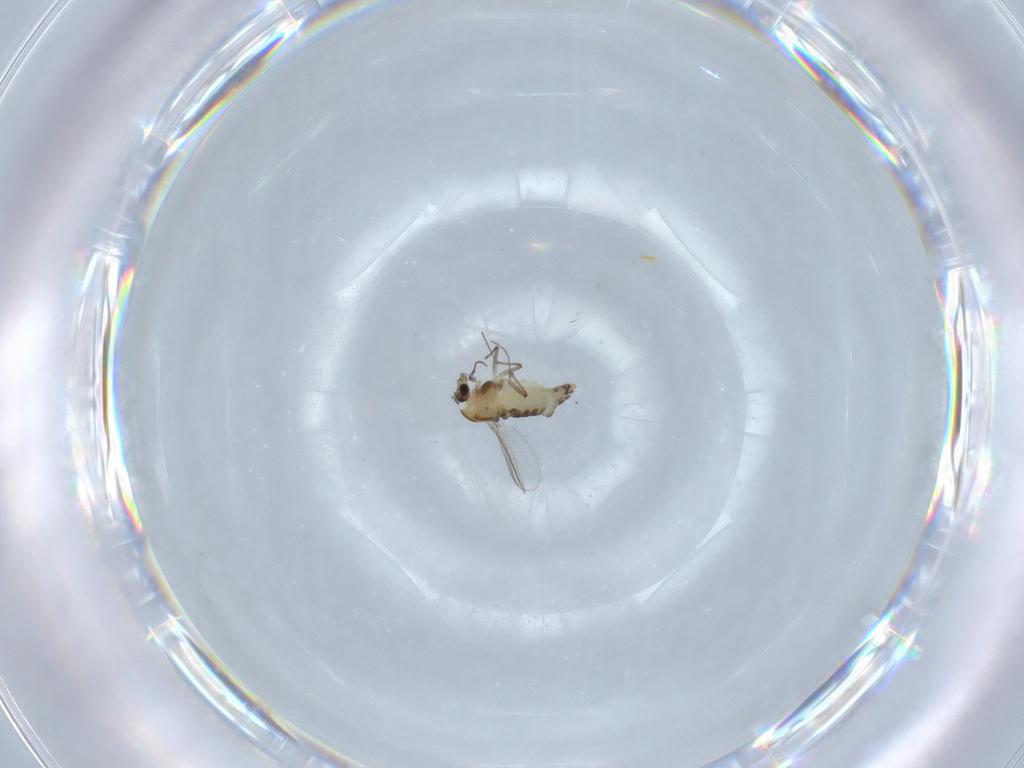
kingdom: Animalia
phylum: Arthropoda
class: Insecta
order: Diptera
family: Chironomidae
